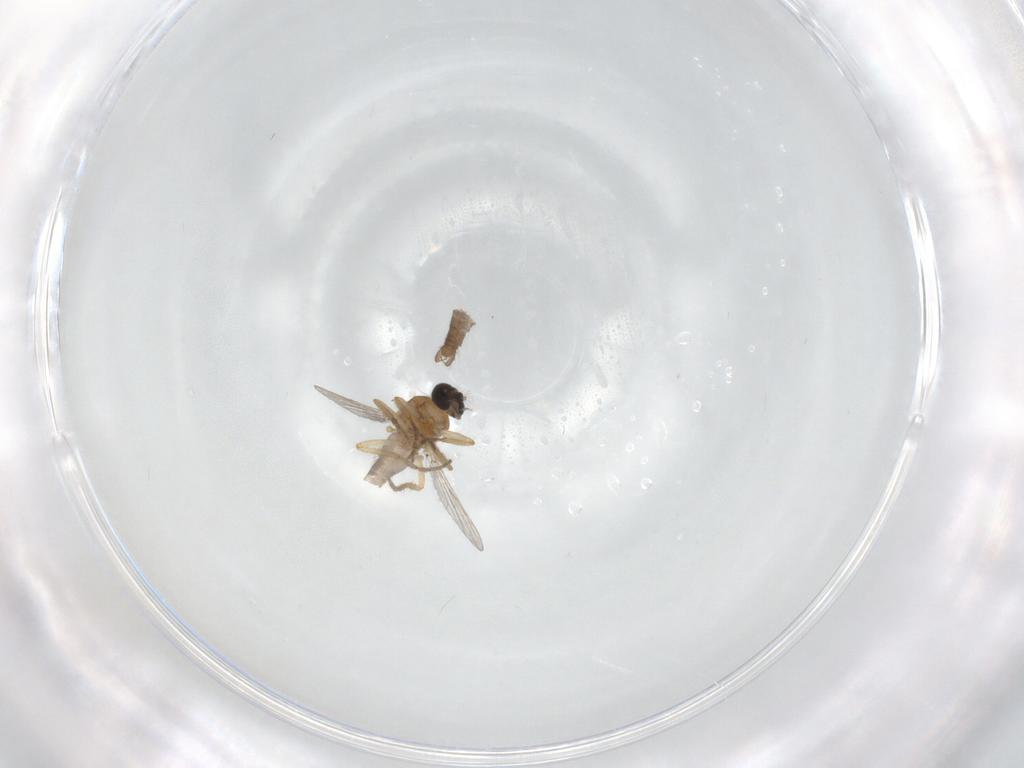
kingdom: Animalia
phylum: Arthropoda
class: Insecta
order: Diptera
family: Ceratopogonidae
